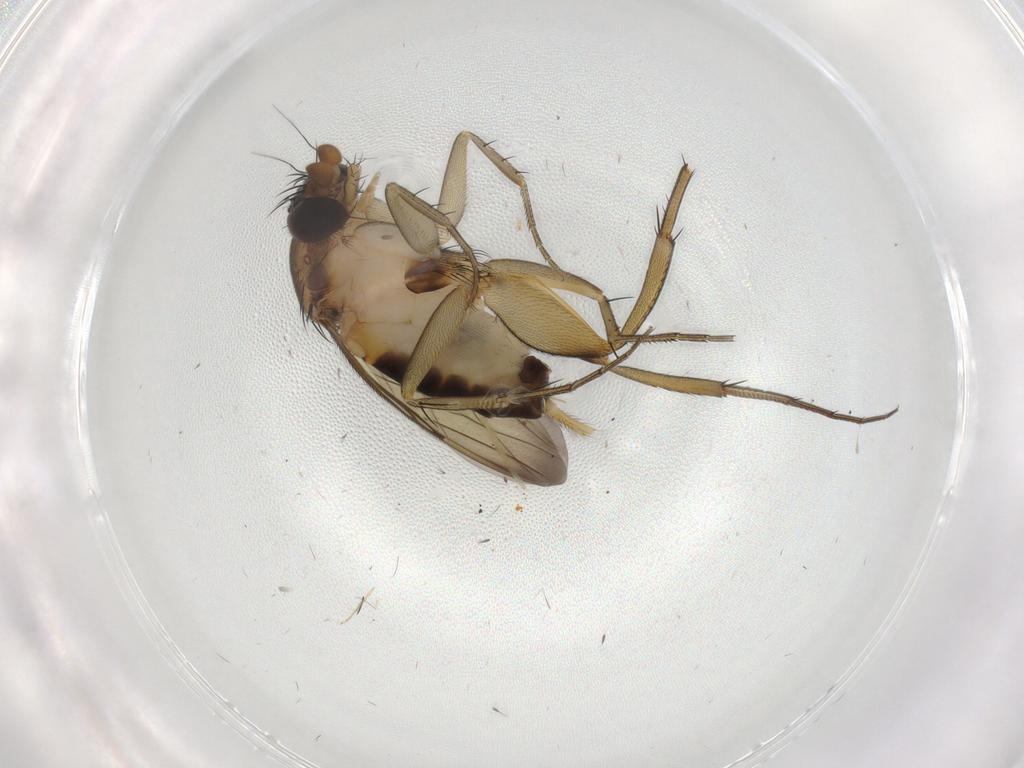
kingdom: Animalia
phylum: Arthropoda
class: Insecta
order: Diptera
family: Phoridae
